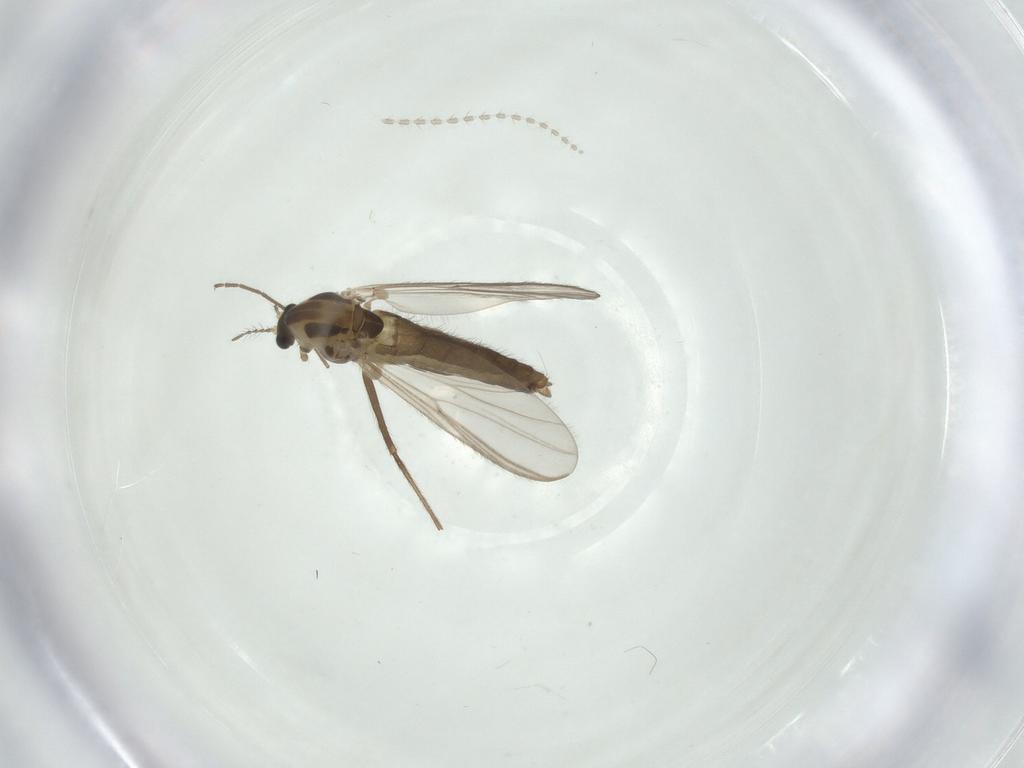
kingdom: Animalia
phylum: Arthropoda
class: Insecta
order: Diptera
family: Chironomidae
